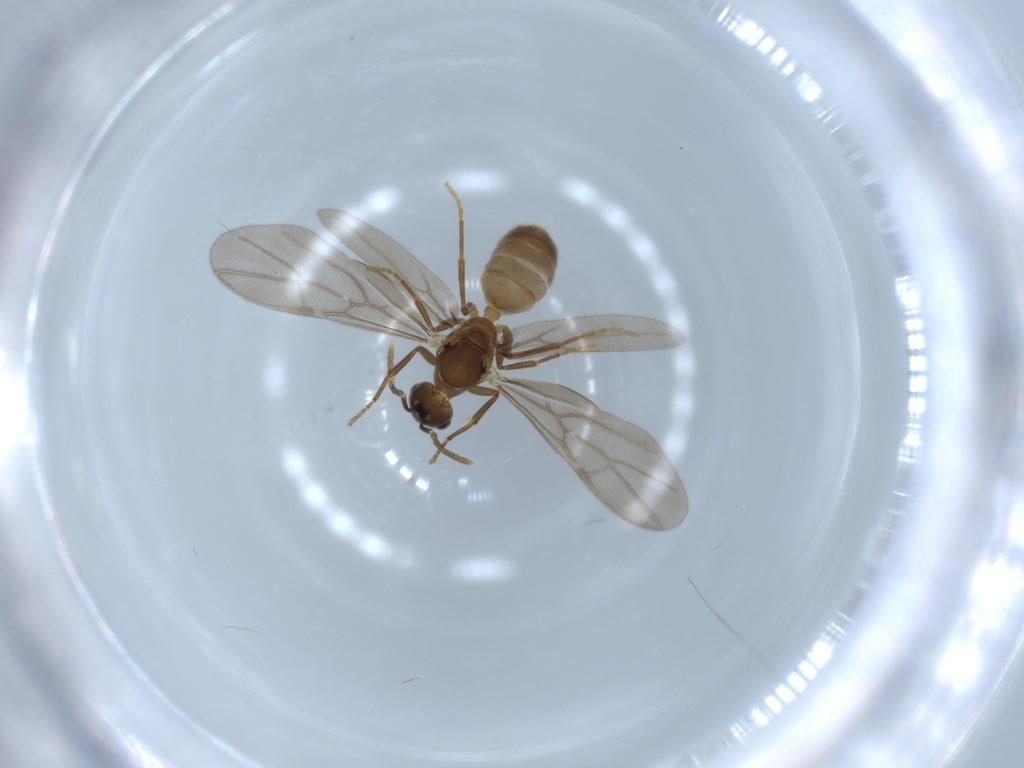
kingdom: Animalia
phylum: Arthropoda
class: Insecta
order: Hymenoptera
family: Formicidae
